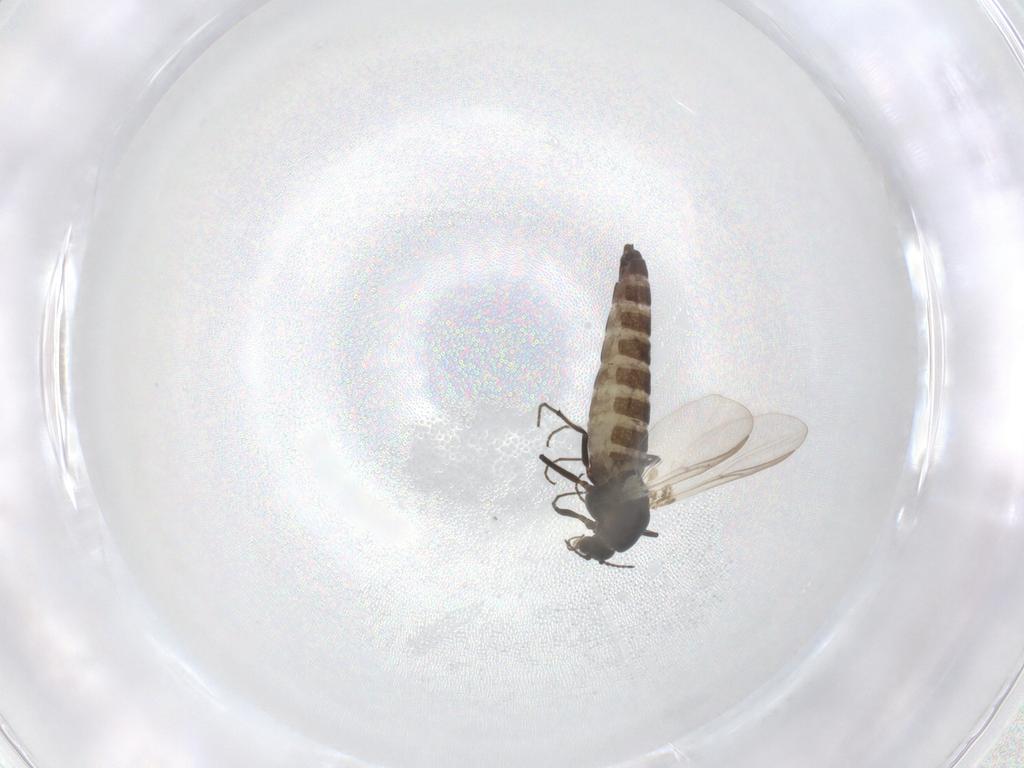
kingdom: Animalia
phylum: Arthropoda
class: Insecta
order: Diptera
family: Chironomidae
